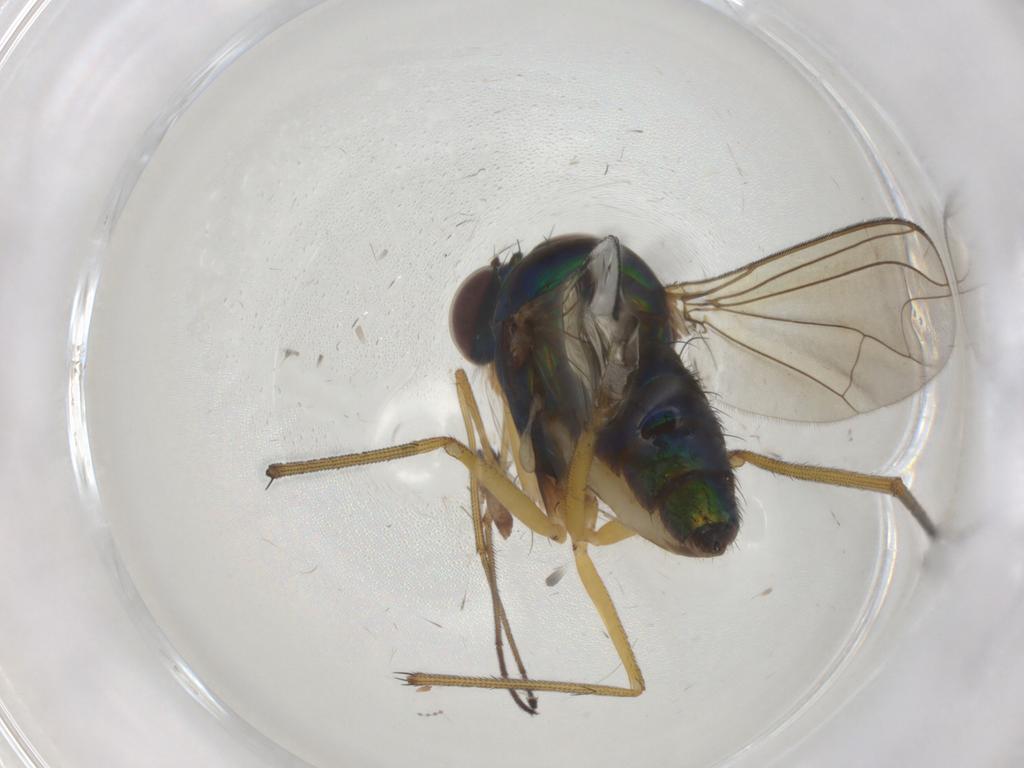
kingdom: Animalia
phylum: Arthropoda
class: Insecta
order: Diptera
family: Dolichopodidae
